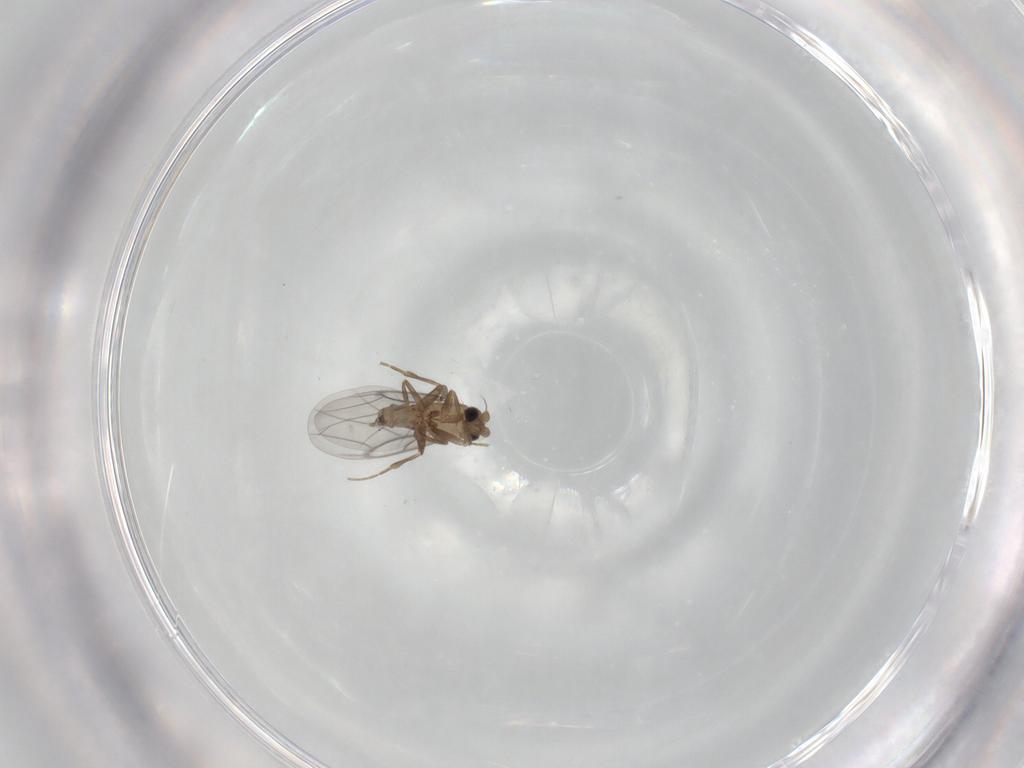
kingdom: Animalia
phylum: Arthropoda
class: Insecta
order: Diptera
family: Cecidomyiidae
